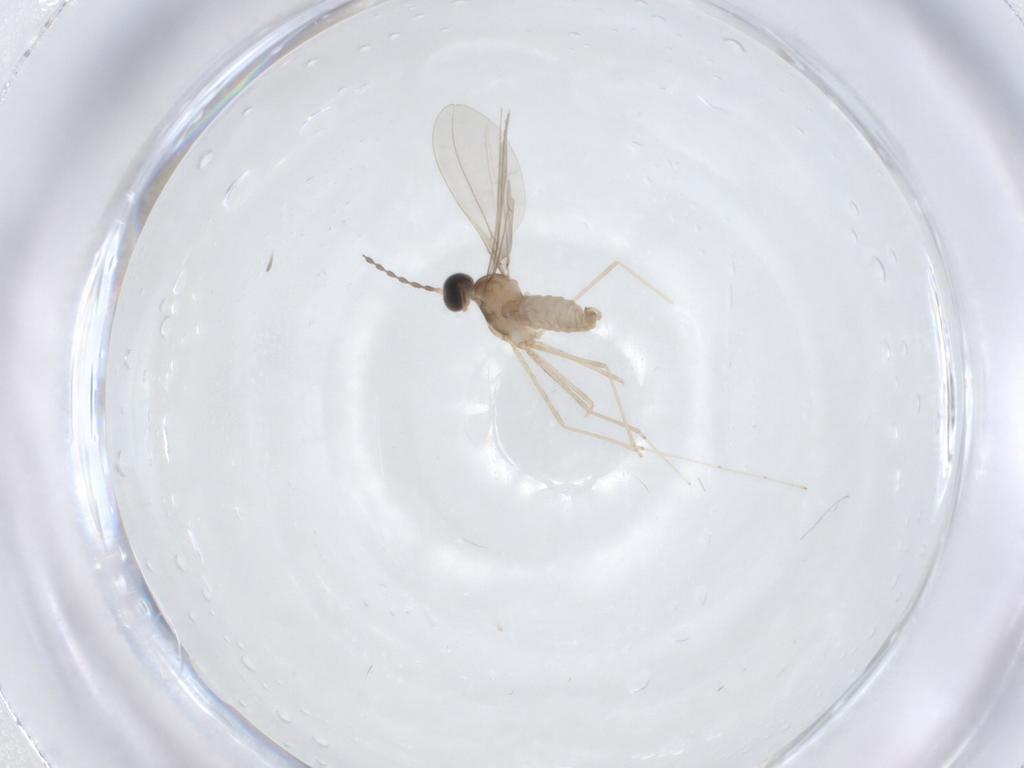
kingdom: Animalia
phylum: Arthropoda
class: Insecta
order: Diptera
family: Cecidomyiidae
